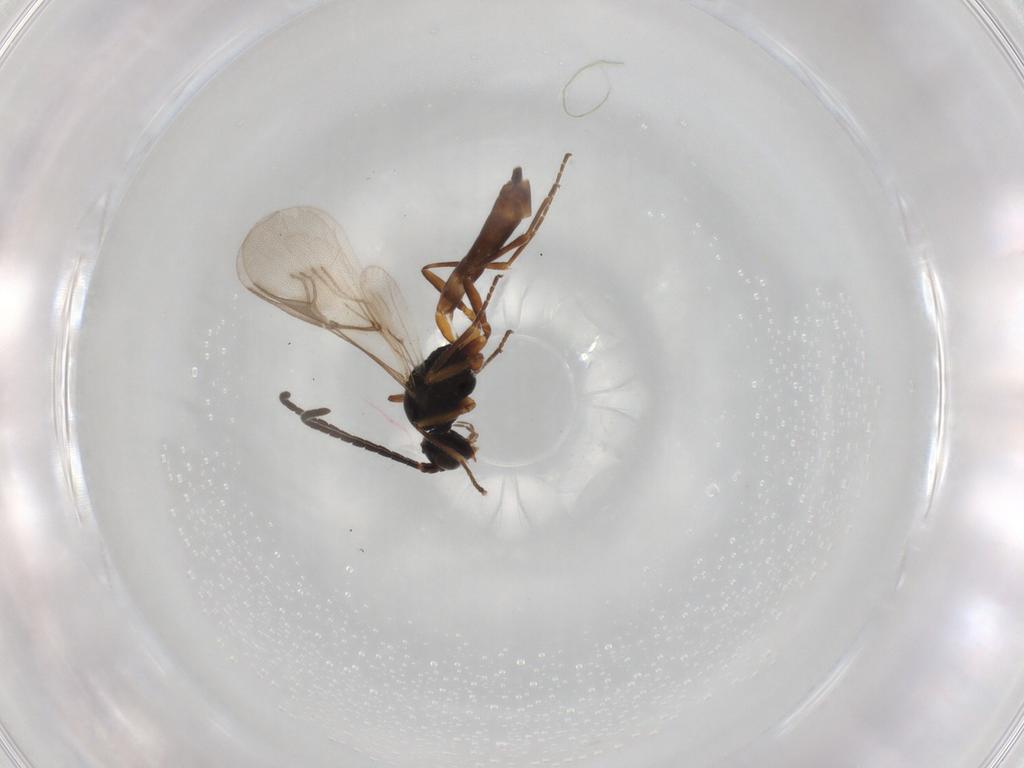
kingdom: Animalia
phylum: Arthropoda
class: Insecta
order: Hymenoptera
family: Braconidae
